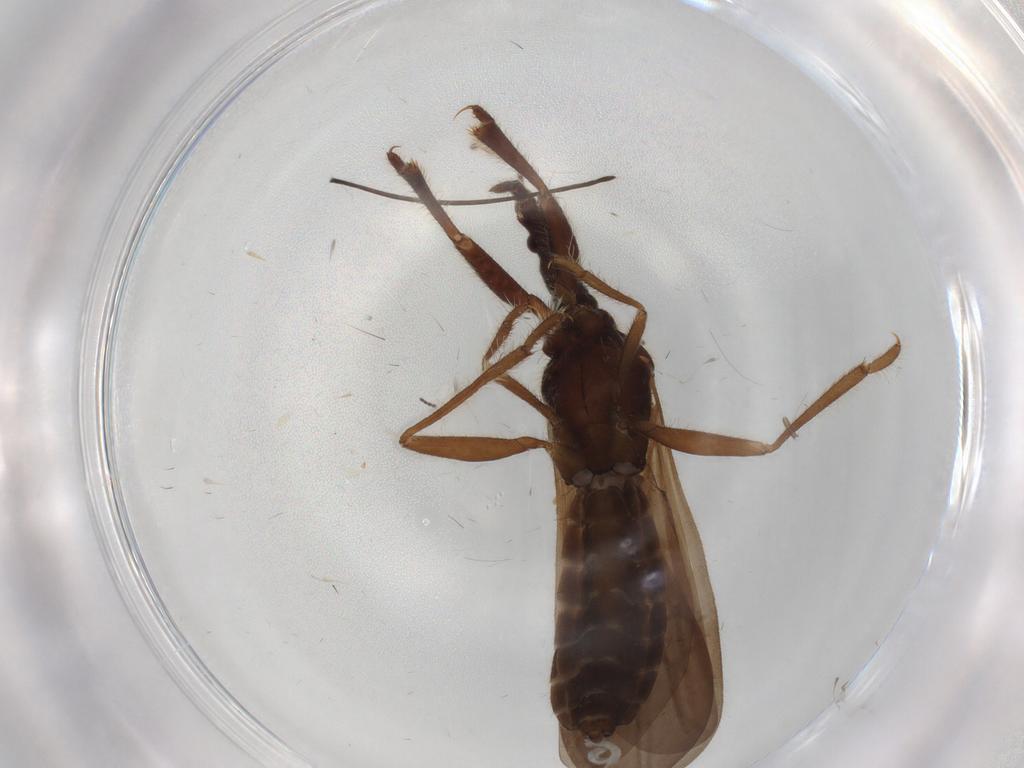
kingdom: Animalia
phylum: Arthropoda
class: Insecta
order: Hemiptera
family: Enicocephalidae
